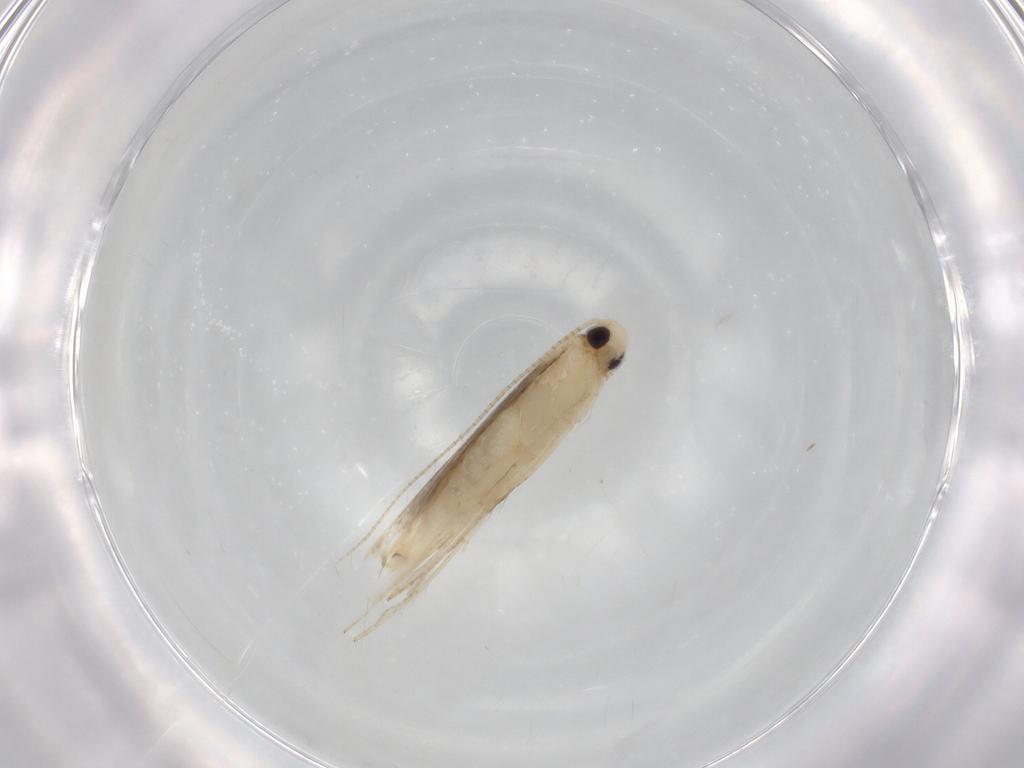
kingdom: Animalia
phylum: Arthropoda
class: Insecta
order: Lepidoptera
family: Gracillariidae
